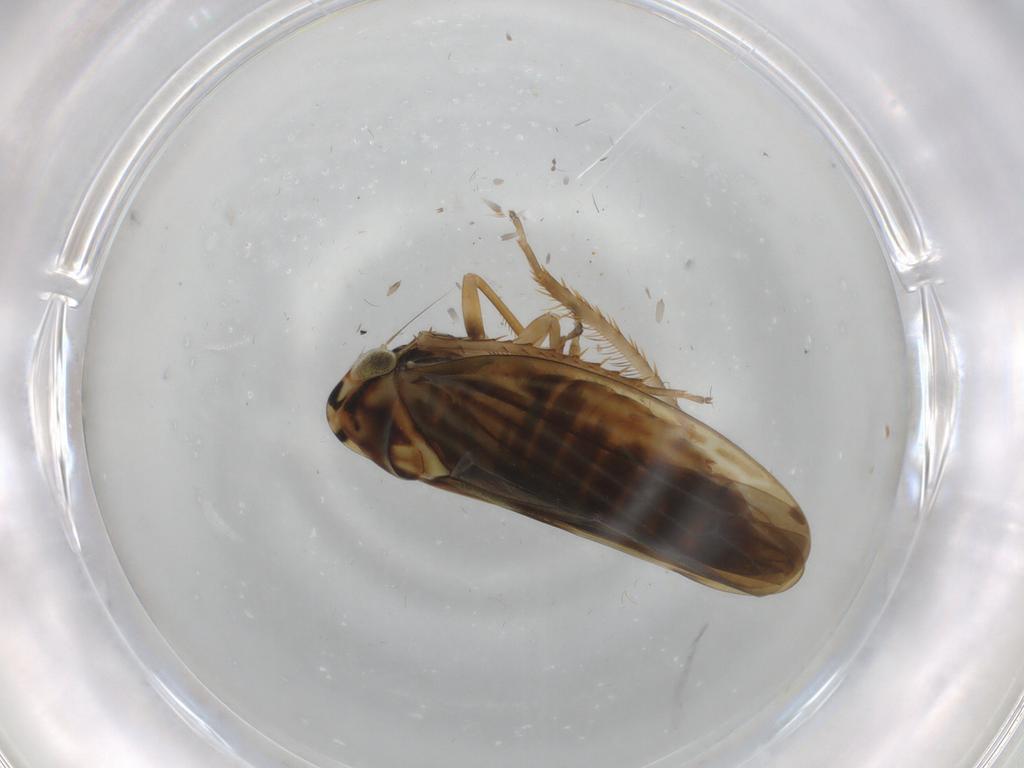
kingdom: Animalia
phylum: Arthropoda
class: Insecta
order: Hemiptera
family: Cicadellidae
